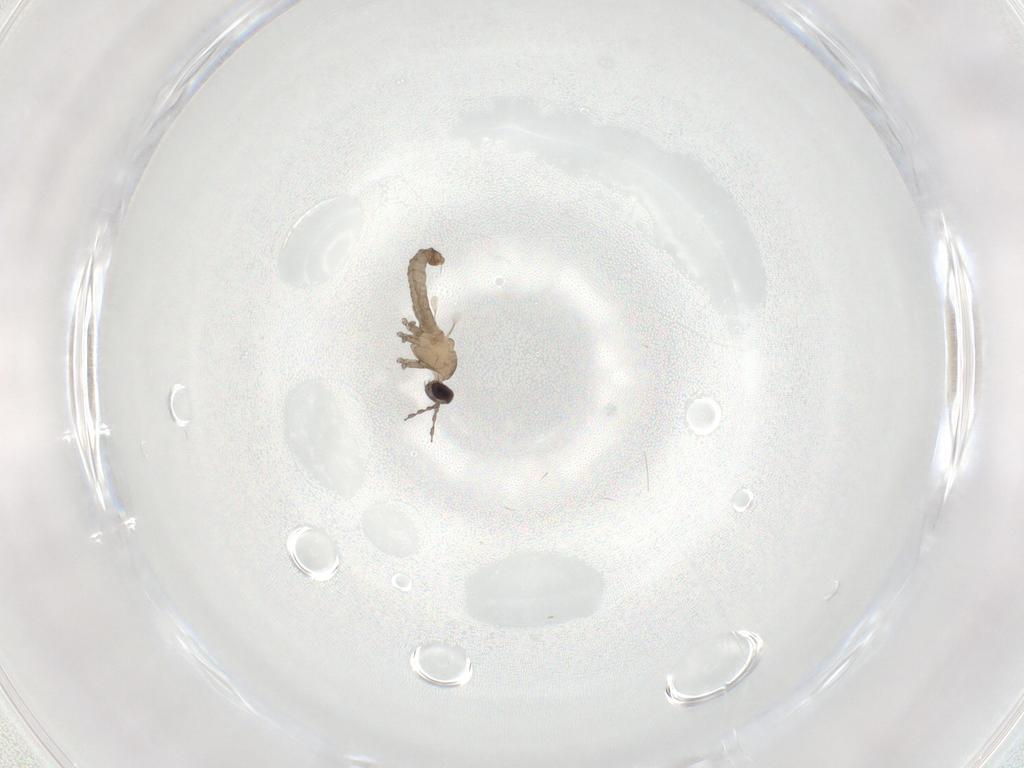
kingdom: Animalia
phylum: Arthropoda
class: Insecta
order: Diptera
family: Cecidomyiidae
